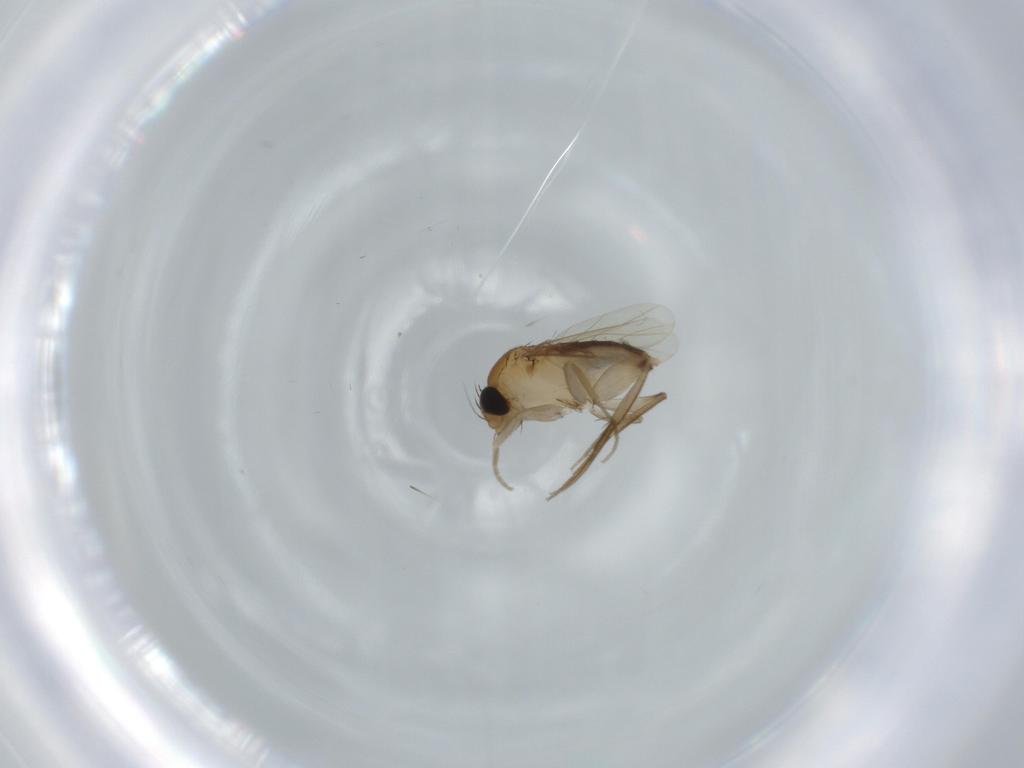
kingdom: Animalia
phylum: Arthropoda
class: Insecta
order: Diptera
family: Phoridae
